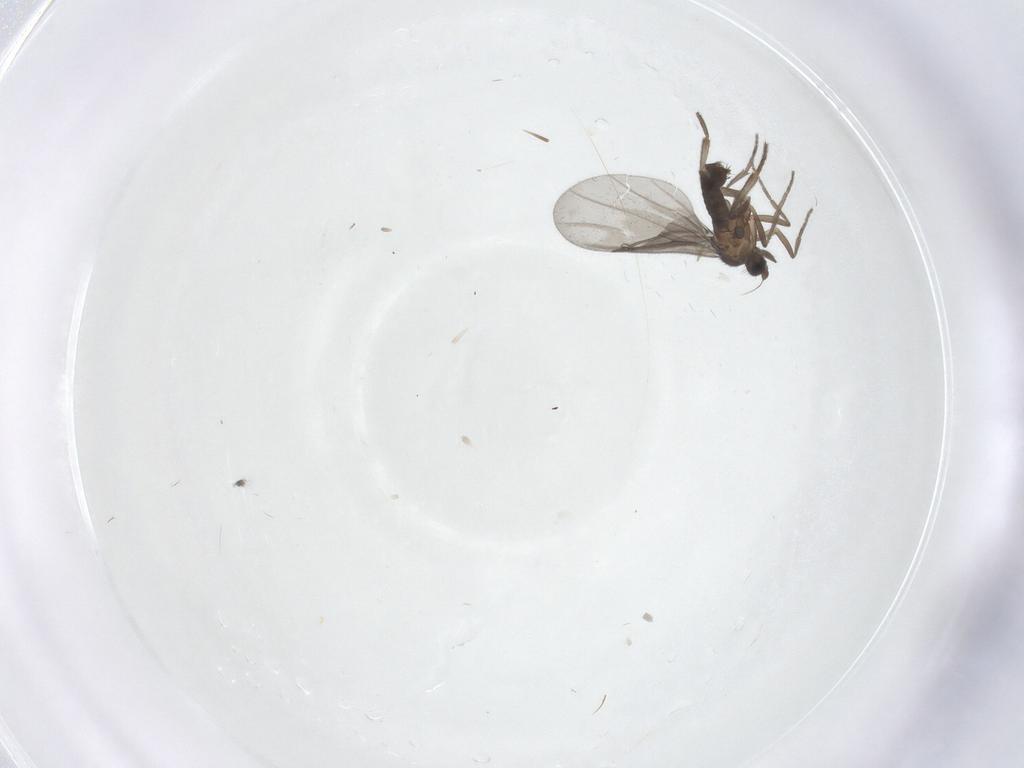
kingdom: Animalia
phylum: Arthropoda
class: Insecta
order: Diptera
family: Phoridae
